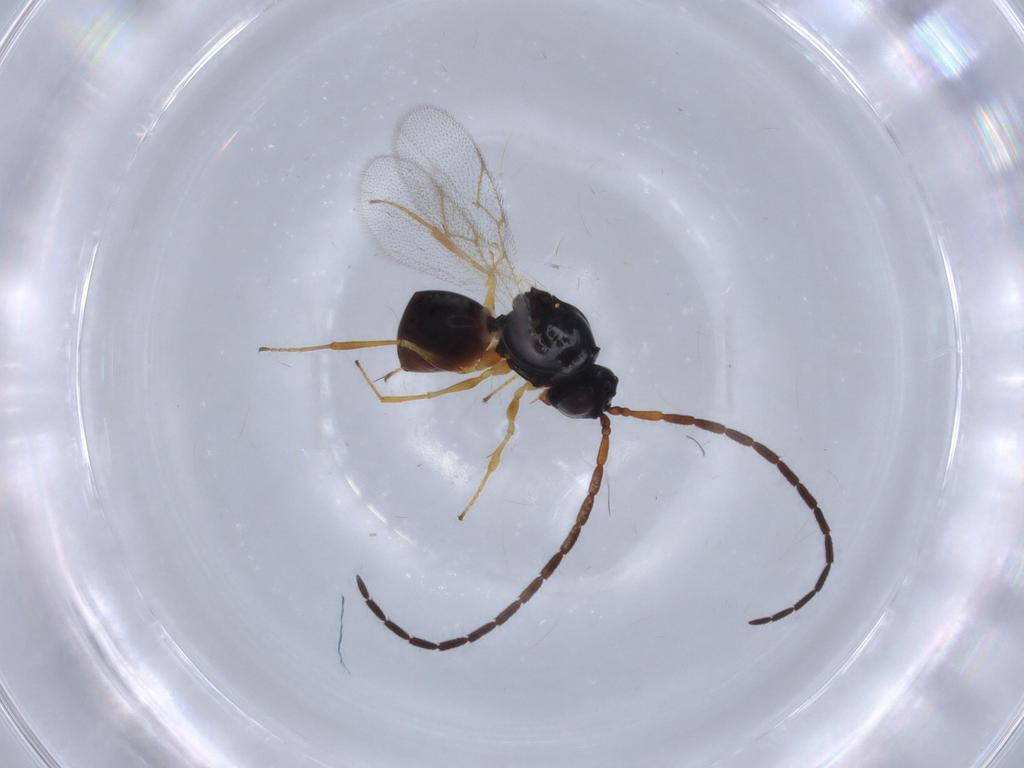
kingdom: Animalia
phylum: Arthropoda
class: Insecta
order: Hymenoptera
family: Figitidae
